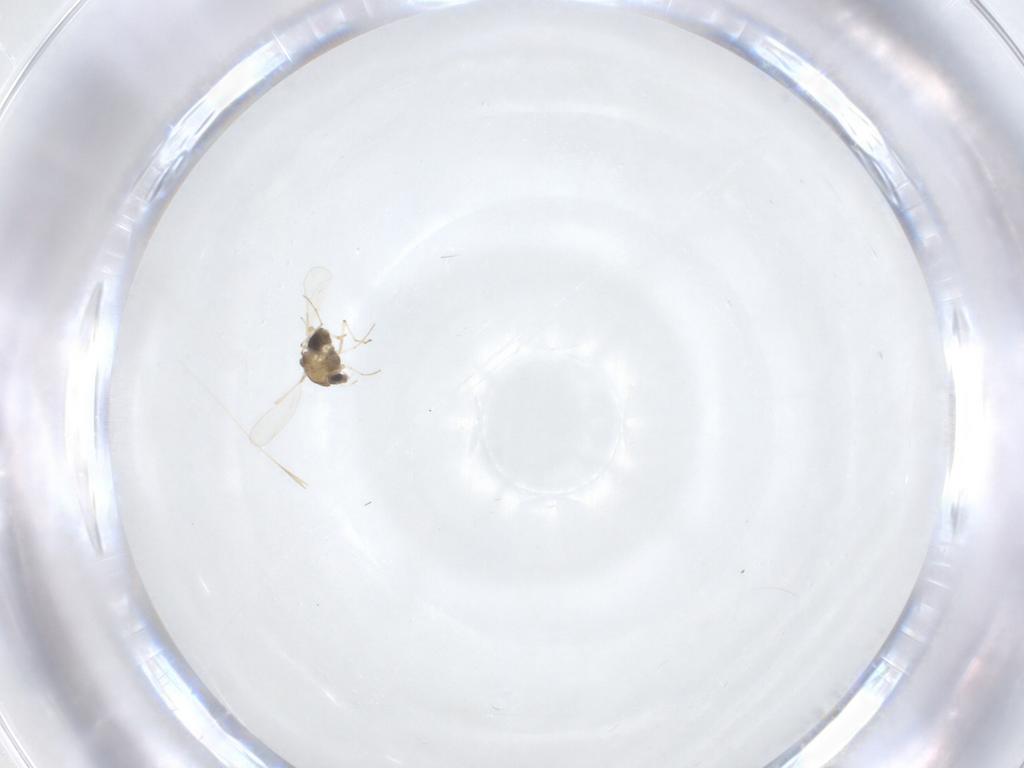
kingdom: Animalia
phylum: Arthropoda
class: Insecta
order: Diptera
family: Chironomidae
